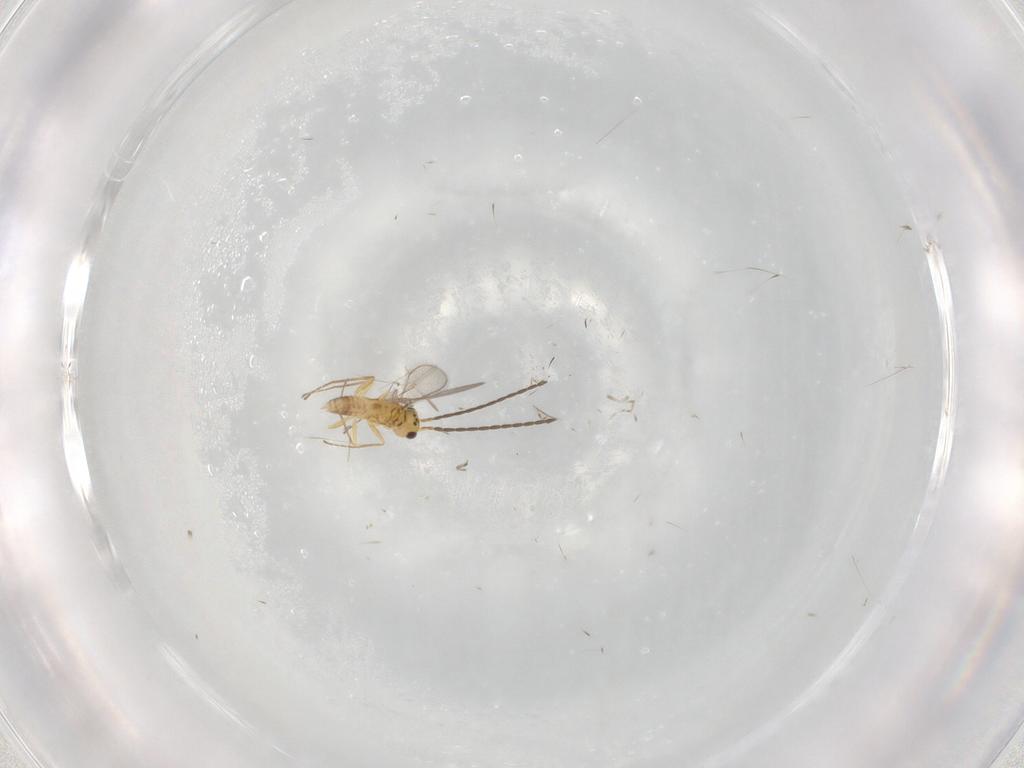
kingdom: Animalia
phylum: Arthropoda
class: Insecta
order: Hymenoptera
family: Mymaridae
